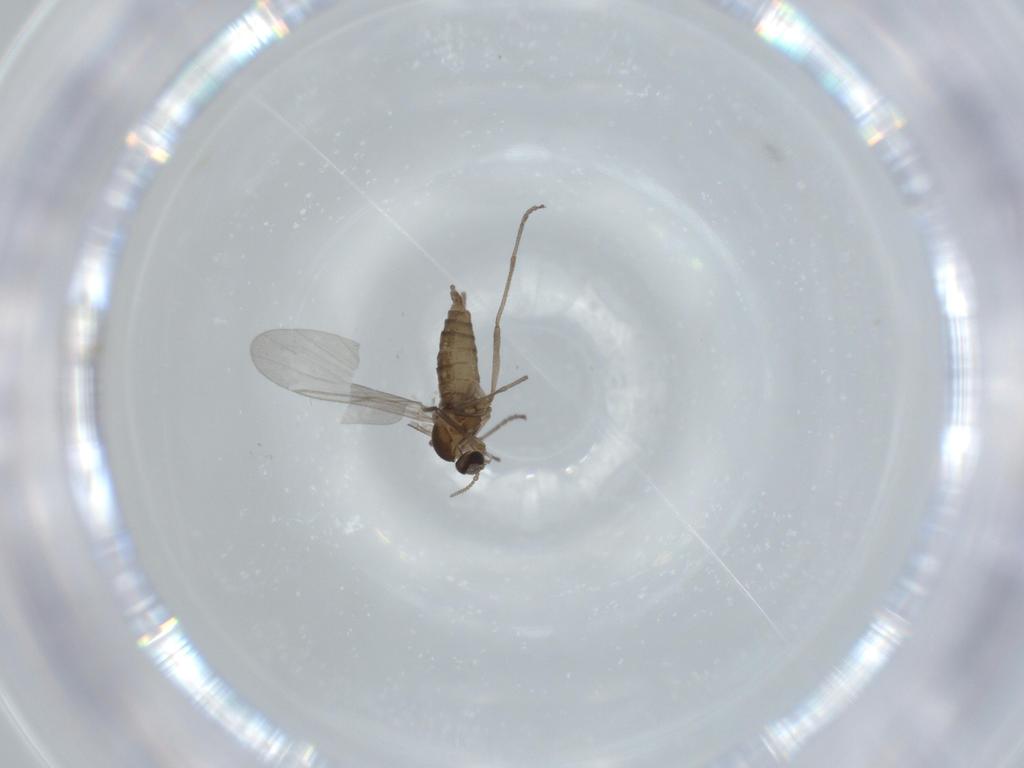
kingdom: Animalia
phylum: Arthropoda
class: Insecta
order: Diptera
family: Cecidomyiidae
